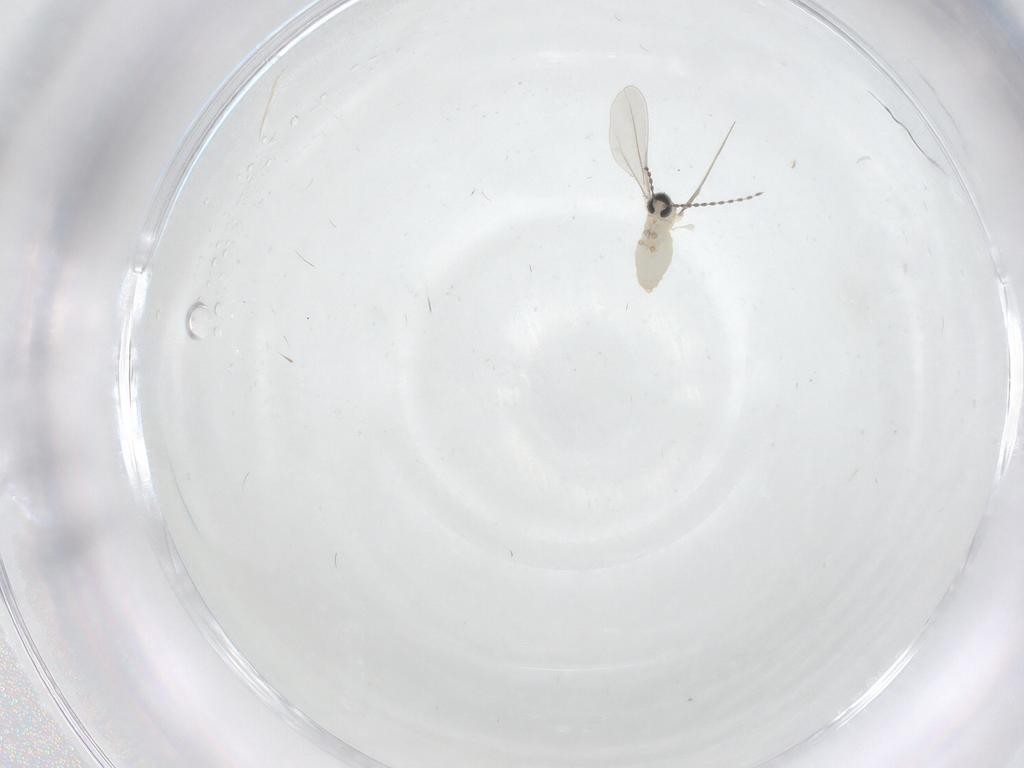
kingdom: Animalia
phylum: Arthropoda
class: Insecta
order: Diptera
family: Cecidomyiidae
